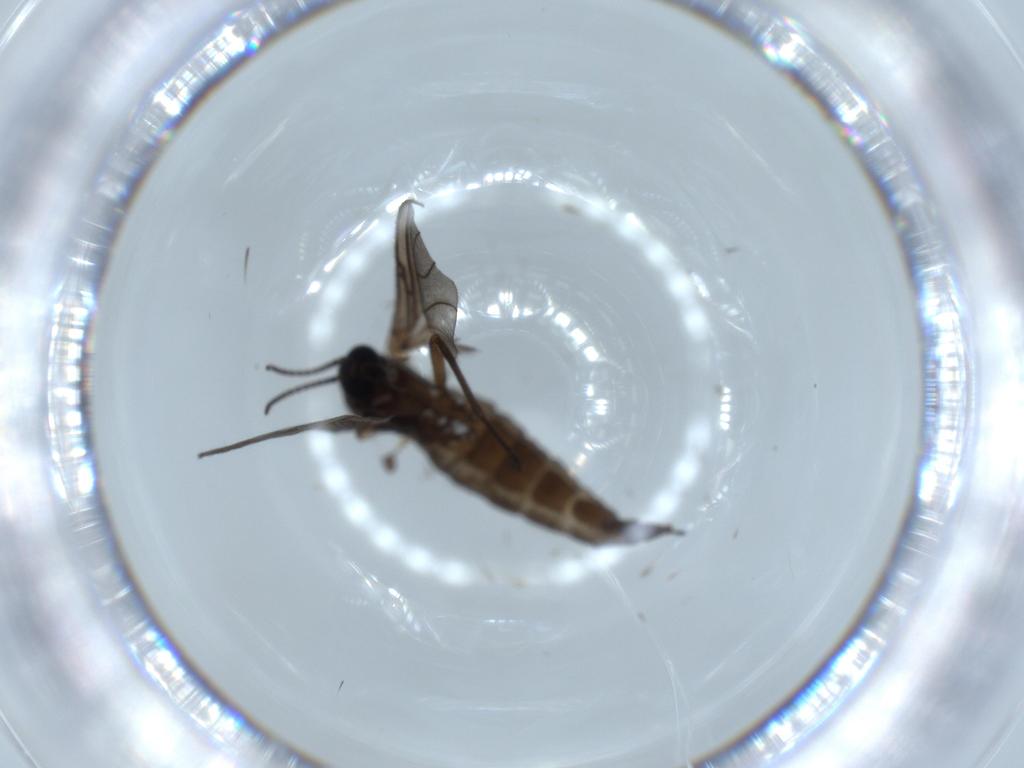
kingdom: Animalia
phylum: Arthropoda
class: Insecta
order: Diptera
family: Sciaridae
